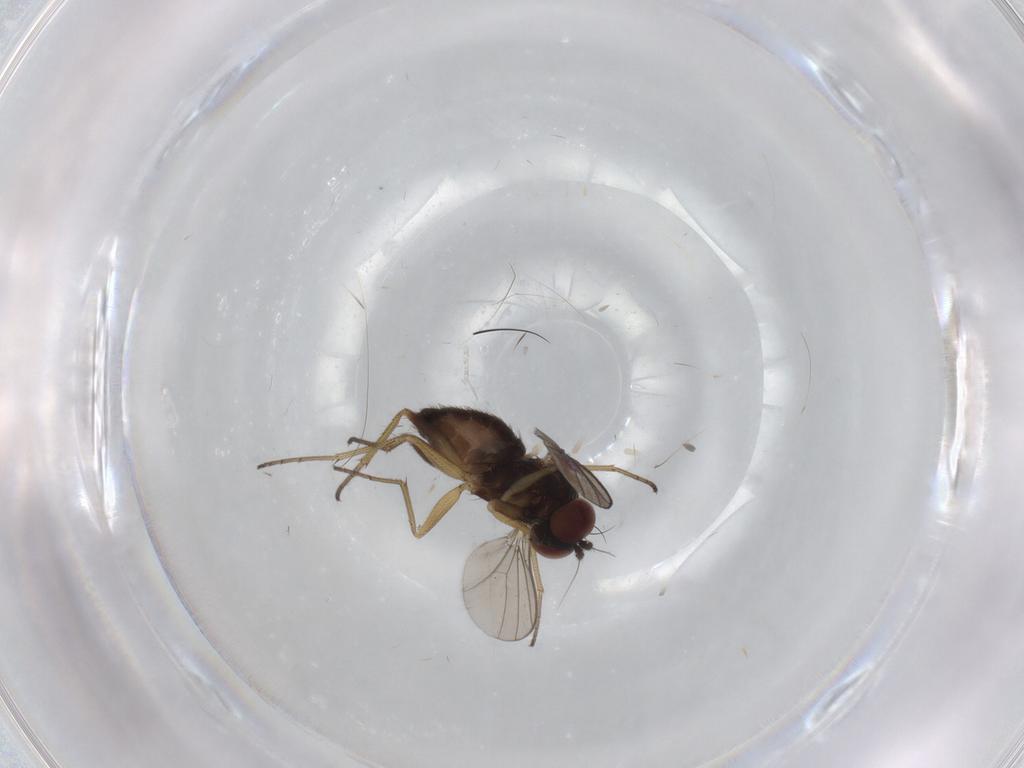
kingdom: Animalia
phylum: Arthropoda
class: Insecta
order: Diptera
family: Dolichopodidae
